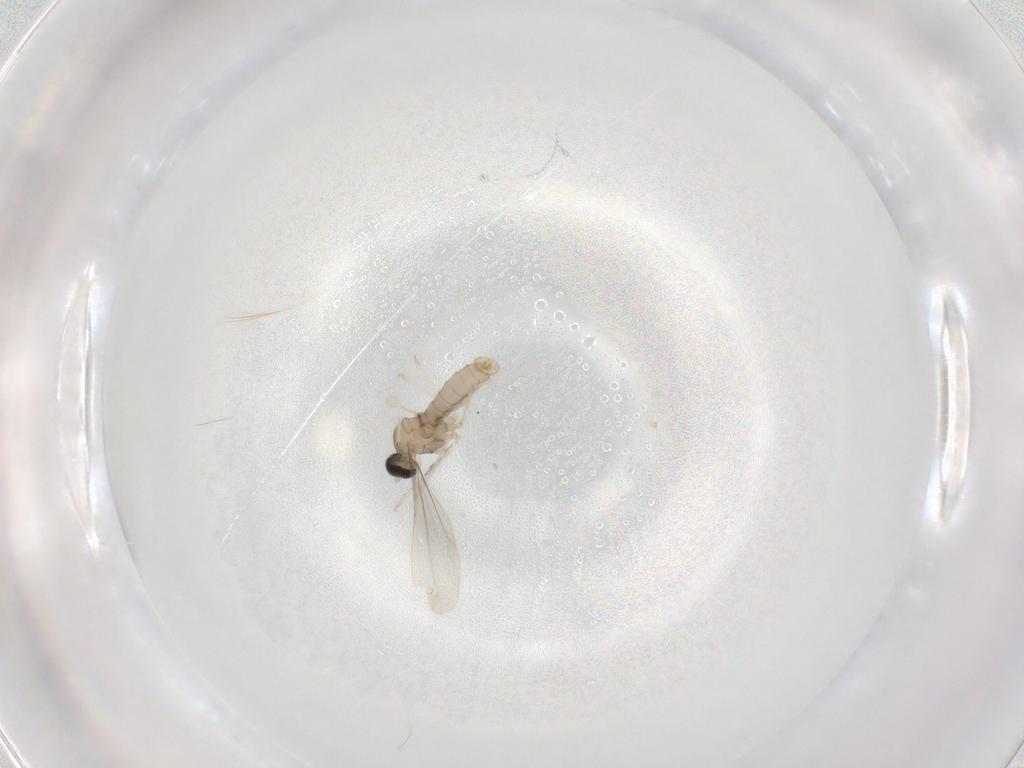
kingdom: Animalia
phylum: Arthropoda
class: Insecta
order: Diptera
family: Cecidomyiidae
